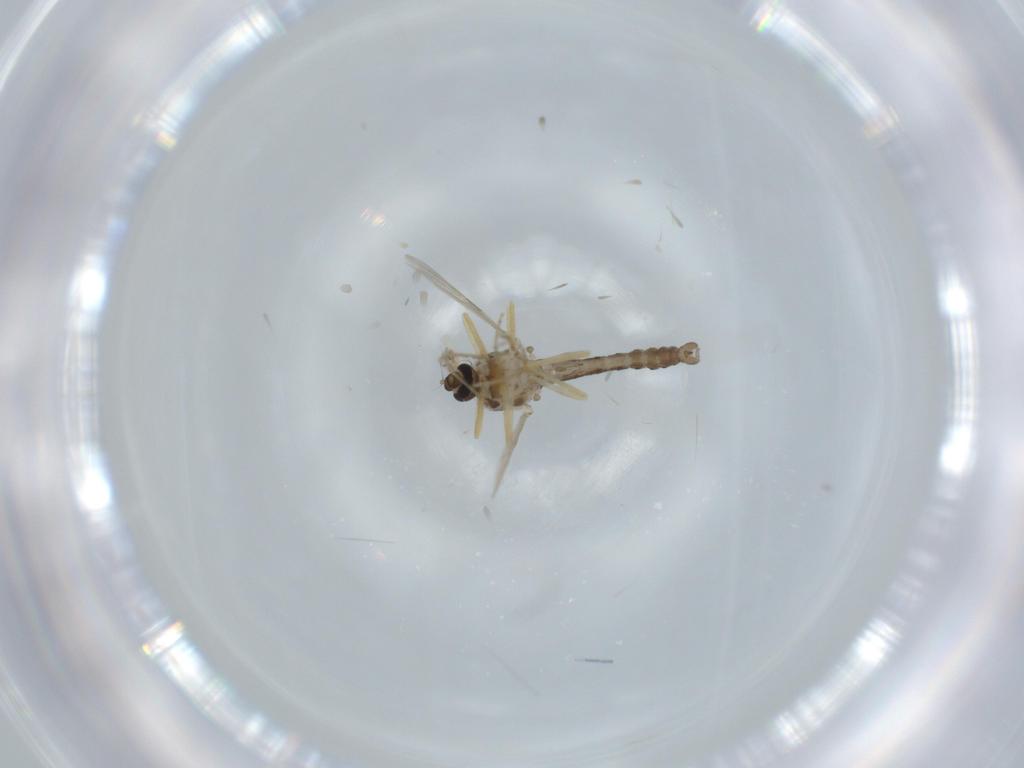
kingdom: Animalia
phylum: Arthropoda
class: Insecta
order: Diptera
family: Ceratopogonidae
